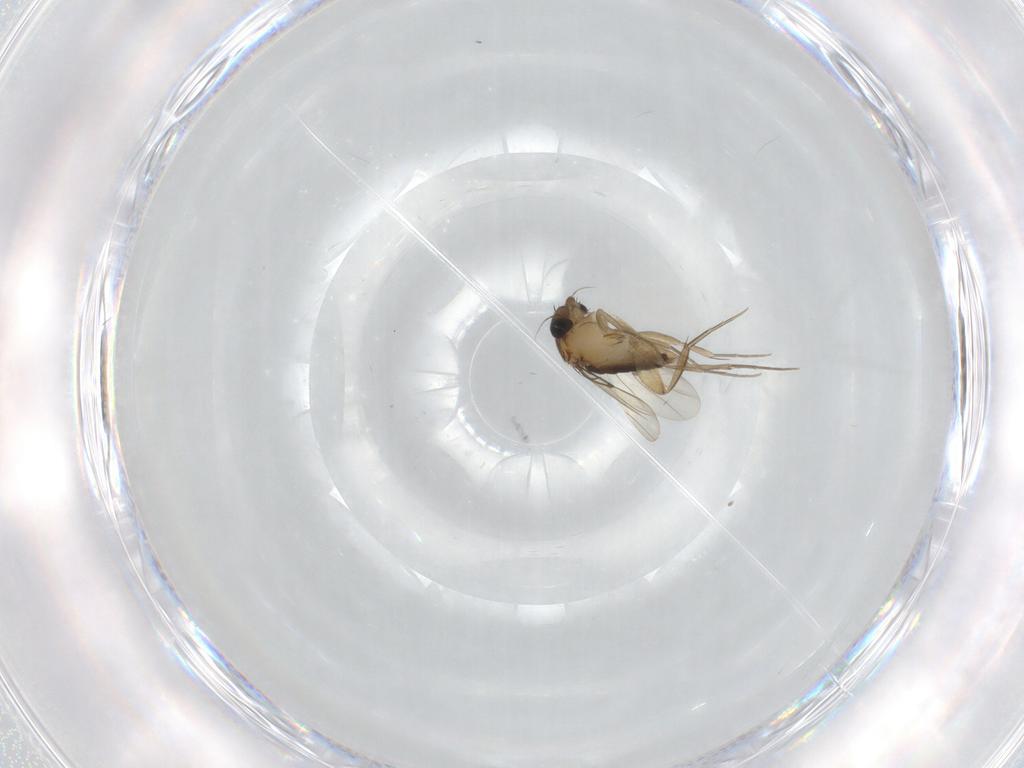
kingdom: Animalia
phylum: Arthropoda
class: Insecta
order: Diptera
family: Phoridae
